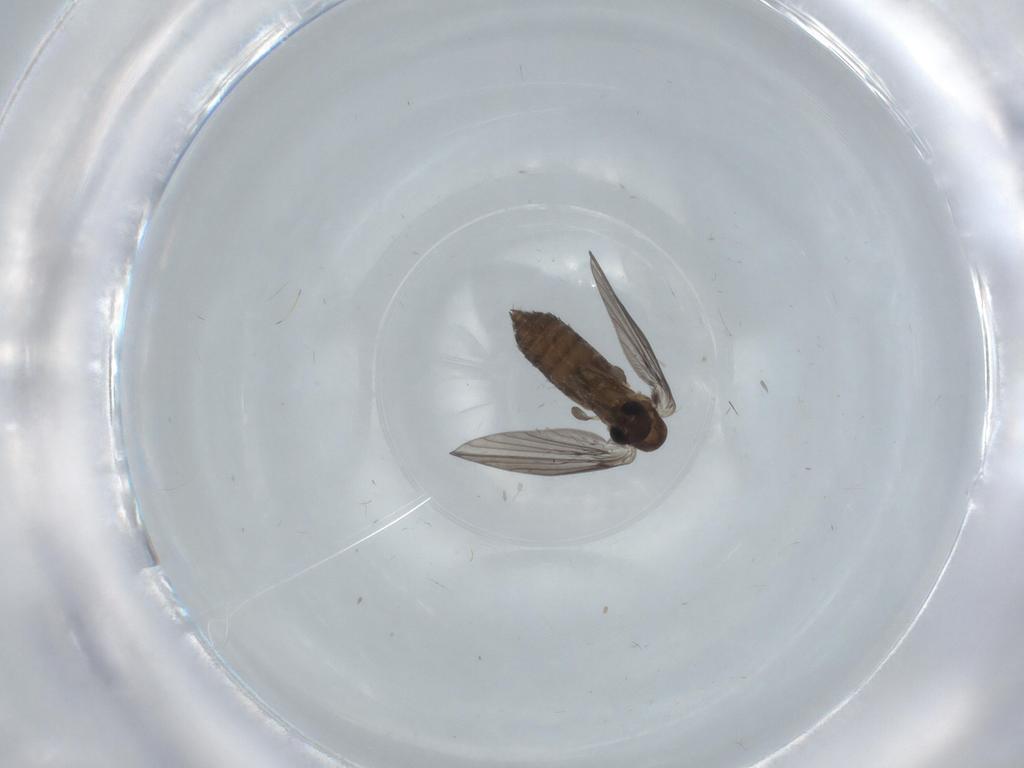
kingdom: Animalia
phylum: Arthropoda
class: Insecta
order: Diptera
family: Psychodidae
